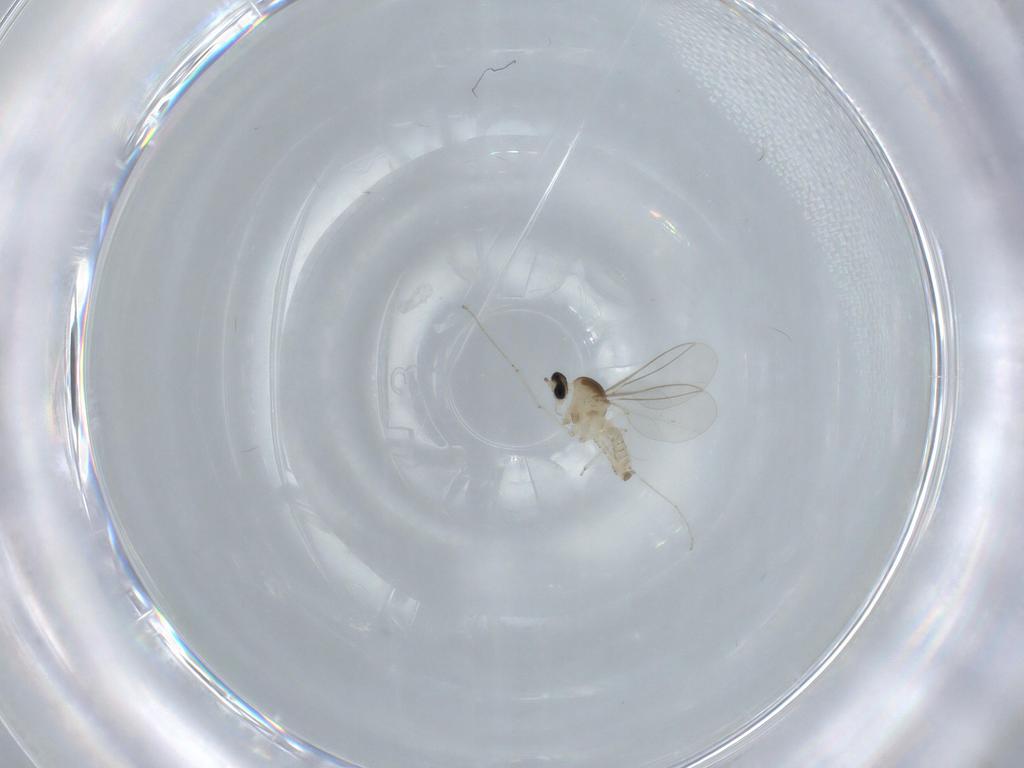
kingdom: Animalia
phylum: Arthropoda
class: Insecta
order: Diptera
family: Cecidomyiidae
